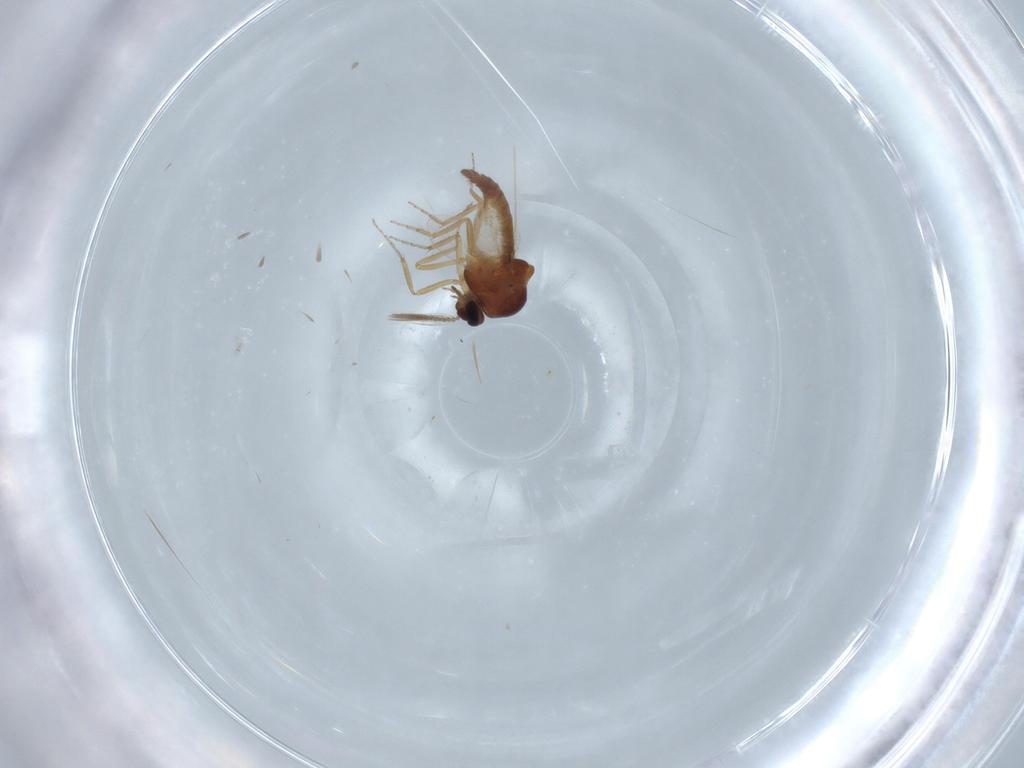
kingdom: Animalia
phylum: Arthropoda
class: Insecta
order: Diptera
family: Ceratopogonidae
